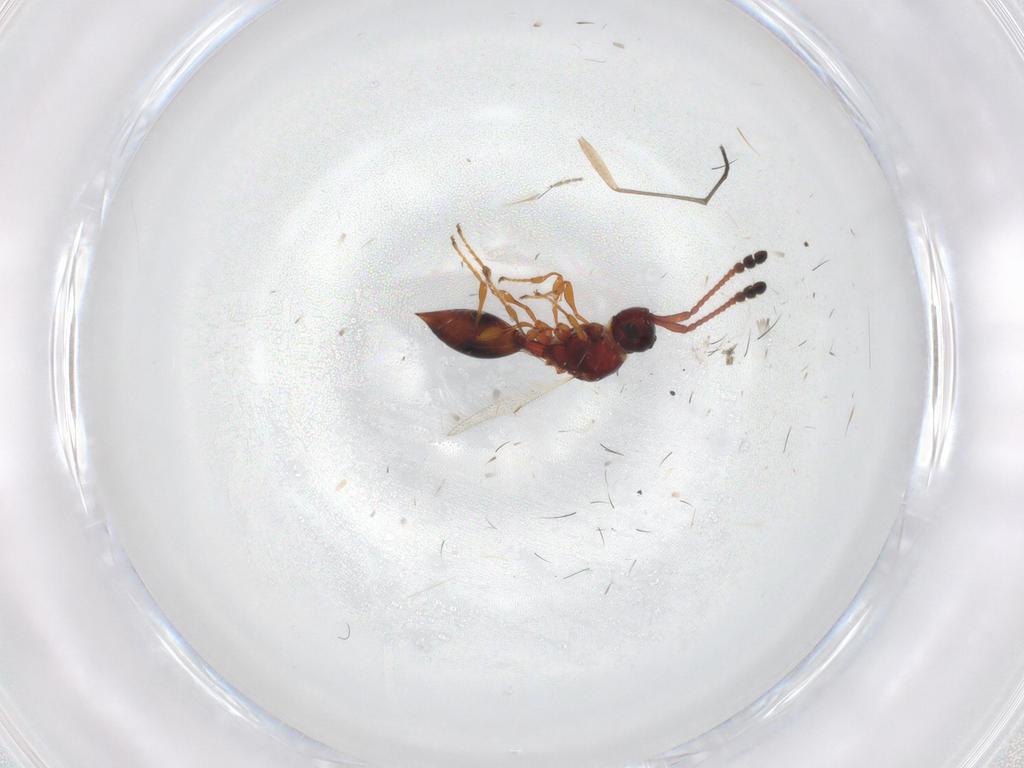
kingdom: Animalia
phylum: Arthropoda
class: Insecta
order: Hymenoptera
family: Diapriidae
